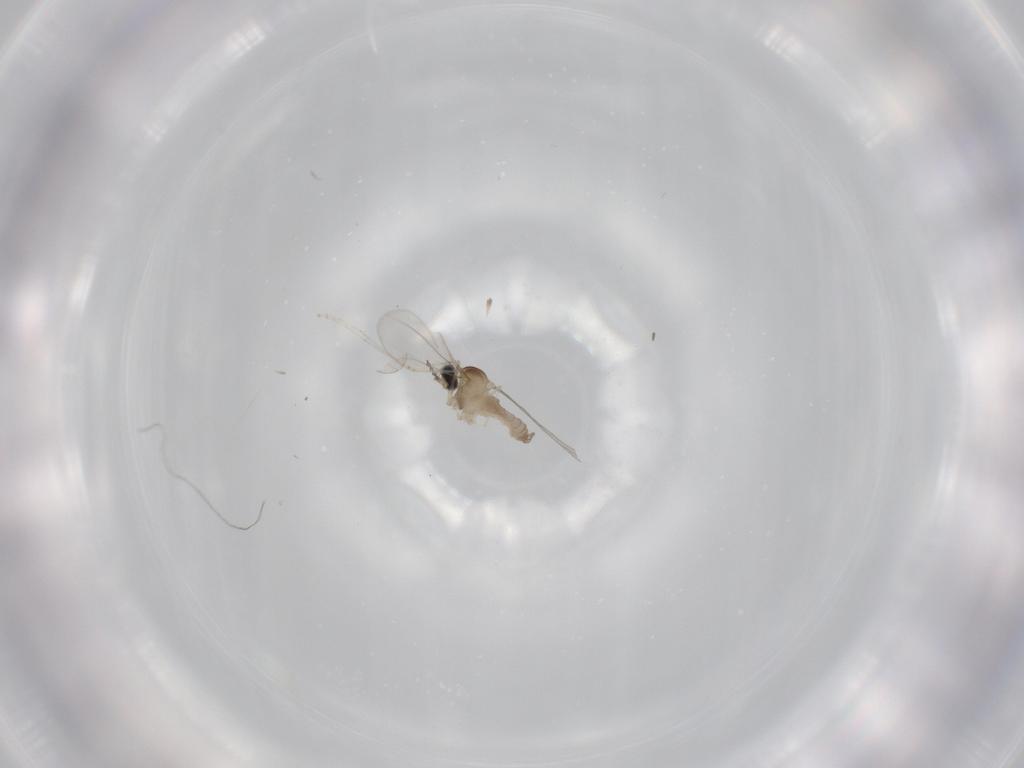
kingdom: Animalia
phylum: Arthropoda
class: Insecta
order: Diptera
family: Cecidomyiidae
